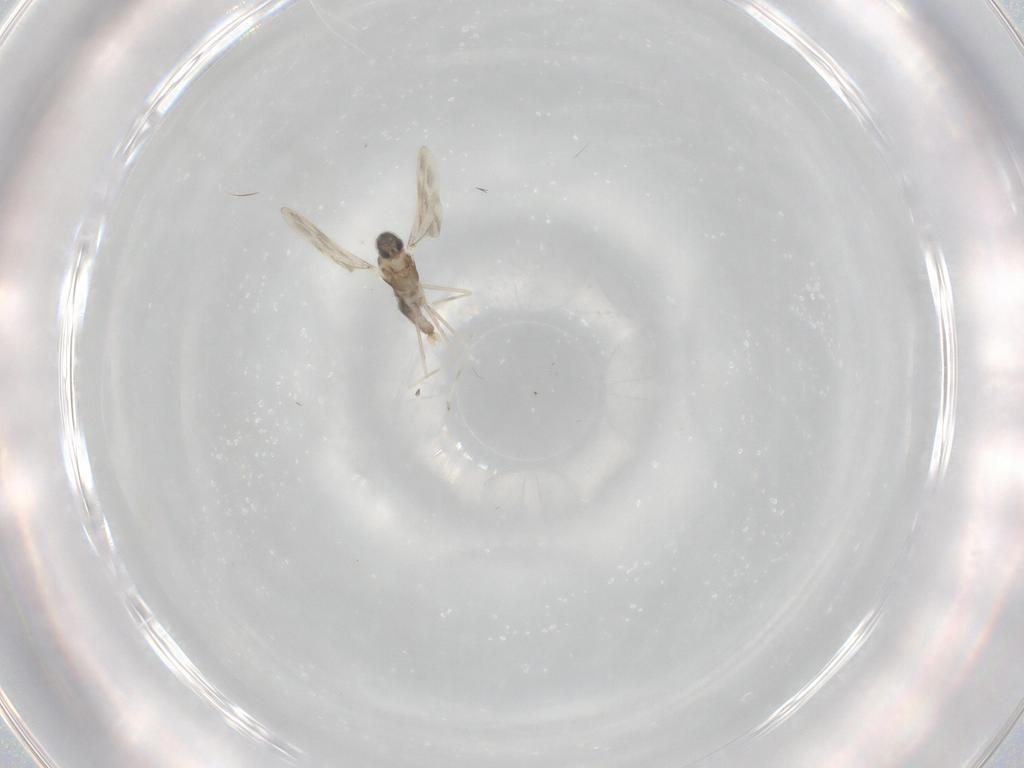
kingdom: Animalia
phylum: Arthropoda
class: Insecta
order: Diptera
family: Cecidomyiidae
